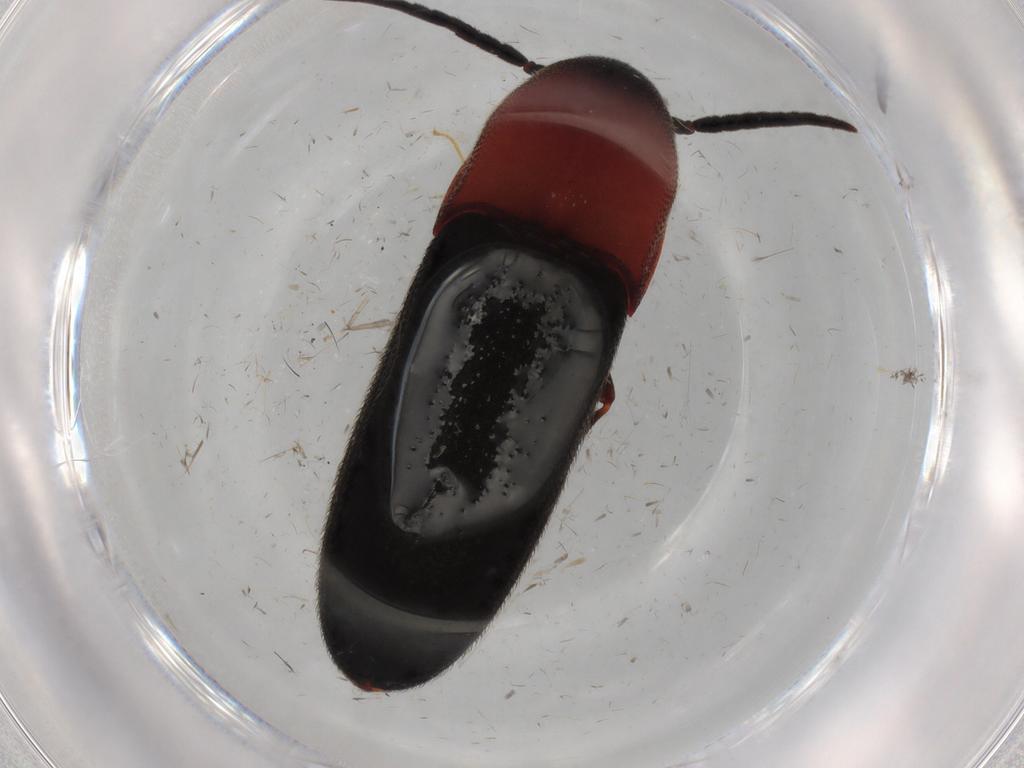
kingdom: Animalia
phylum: Arthropoda
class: Insecta
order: Coleoptera
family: Eucnemidae
